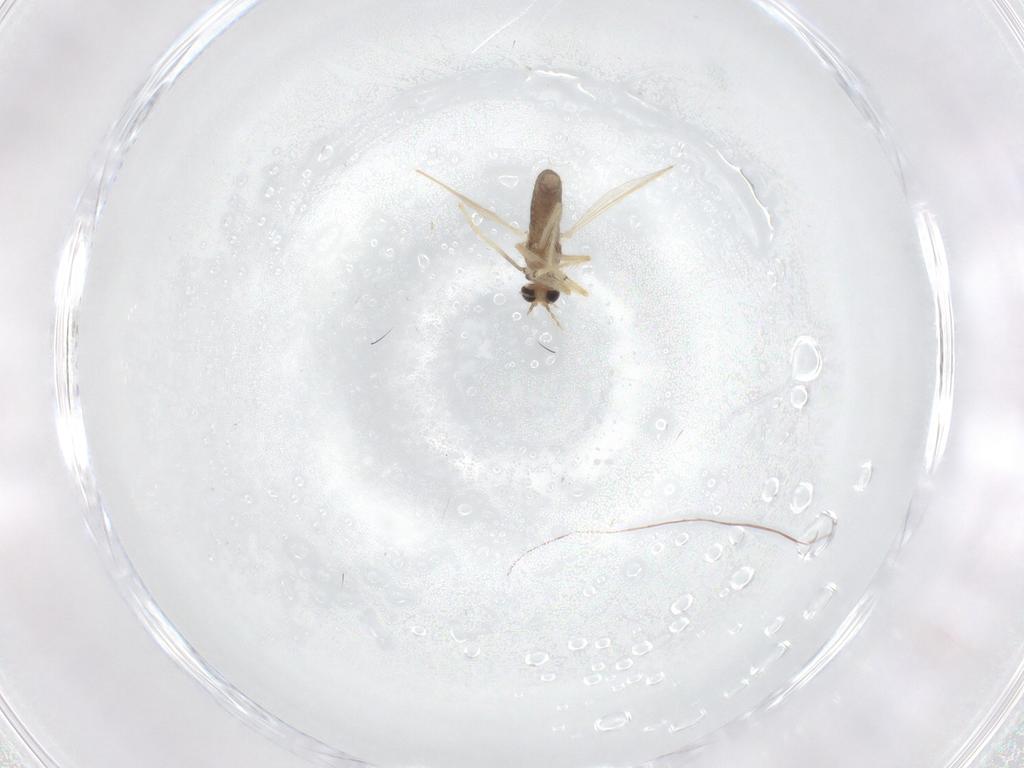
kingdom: Animalia
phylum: Arthropoda
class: Insecta
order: Diptera
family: Chironomidae
